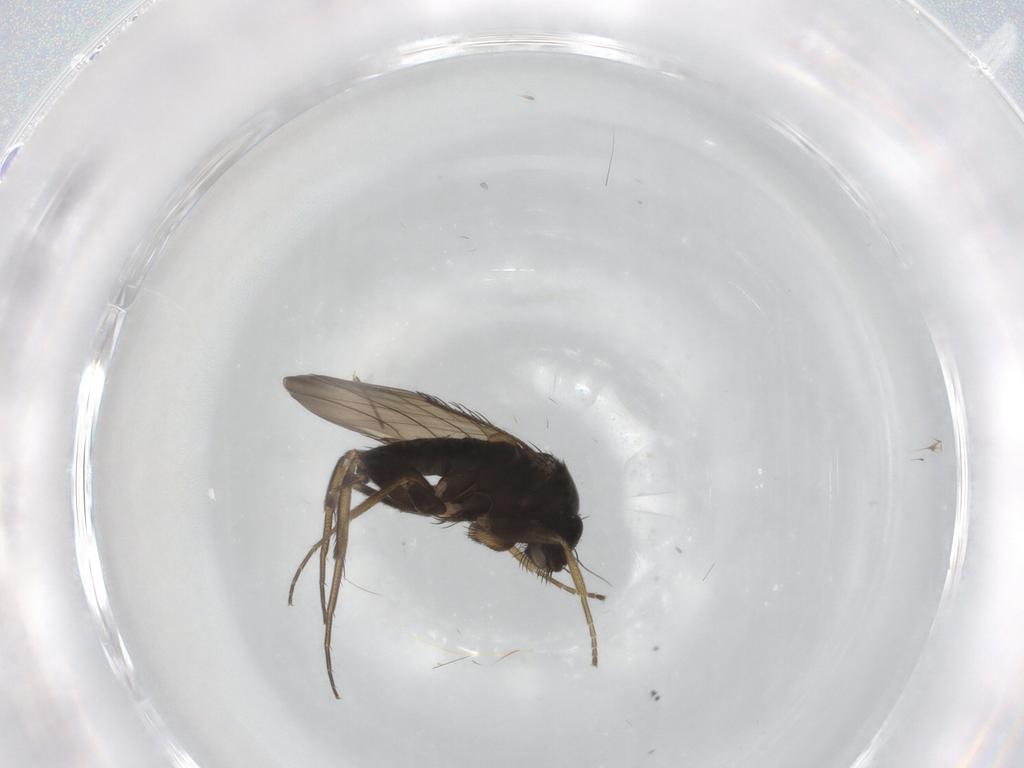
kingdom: Animalia
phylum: Arthropoda
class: Insecta
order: Diptera
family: Phoridae
